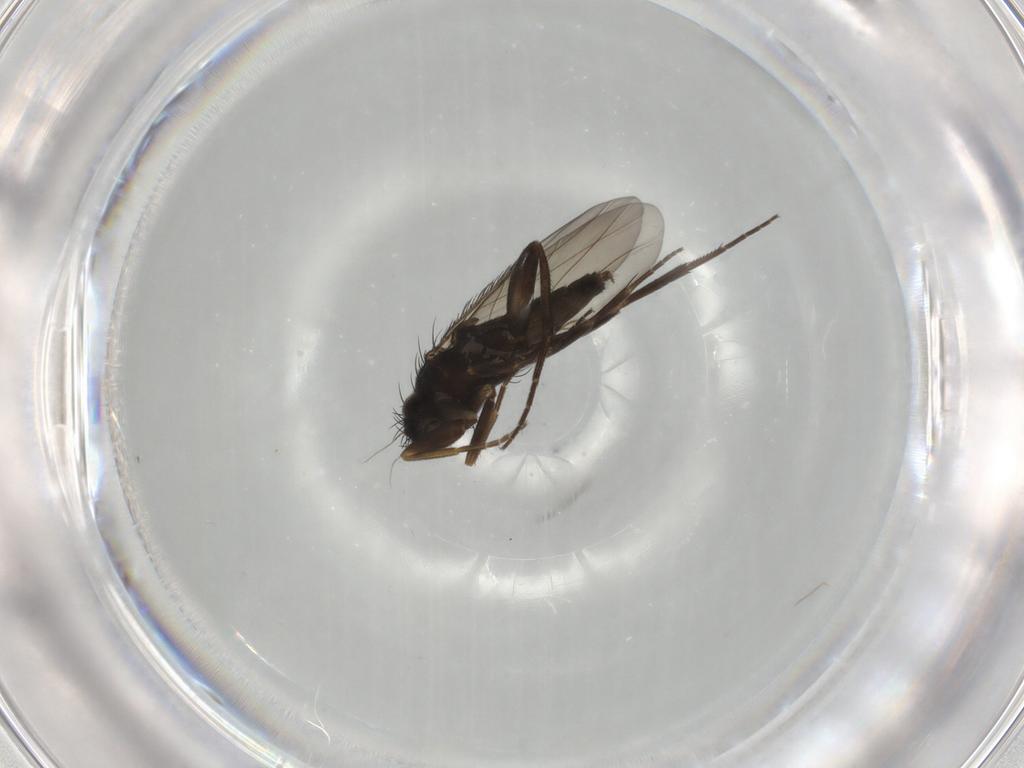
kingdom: Animalia
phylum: Arthropoda
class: Insecta
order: Diptera
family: Phoridae
